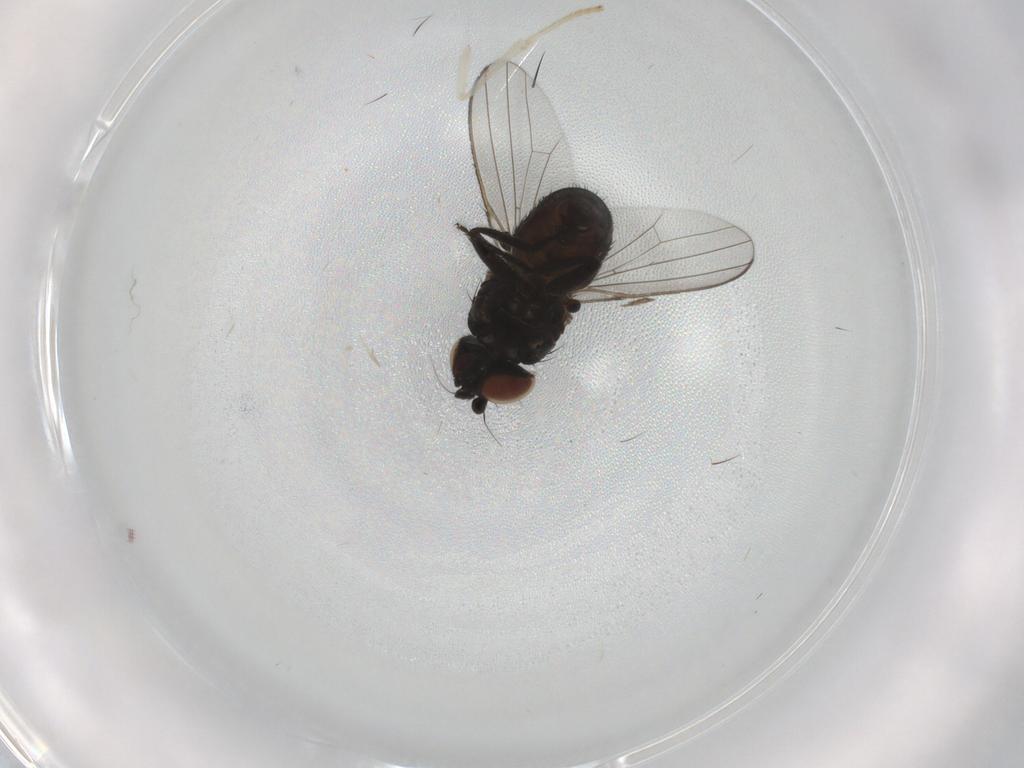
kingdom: Animalia
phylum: Arthropoda
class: Insecta
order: Diptera
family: Milichiidae
